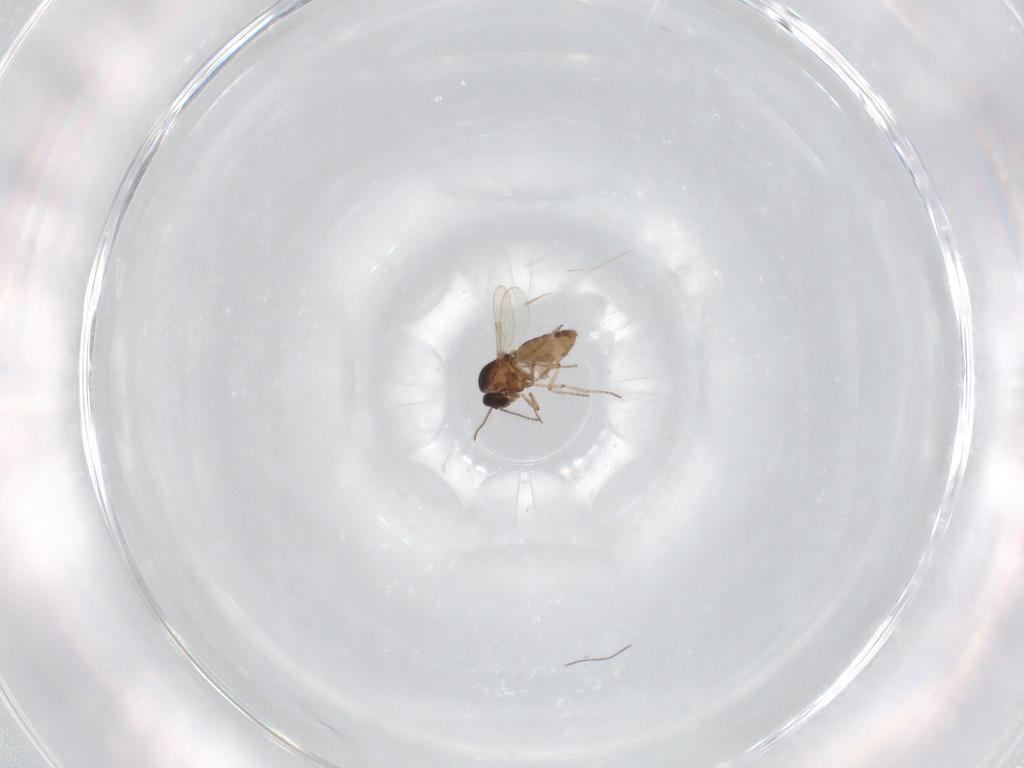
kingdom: Animalia
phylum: Arthropoda
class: Insecta
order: Diptera
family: Ceratopogonidae
